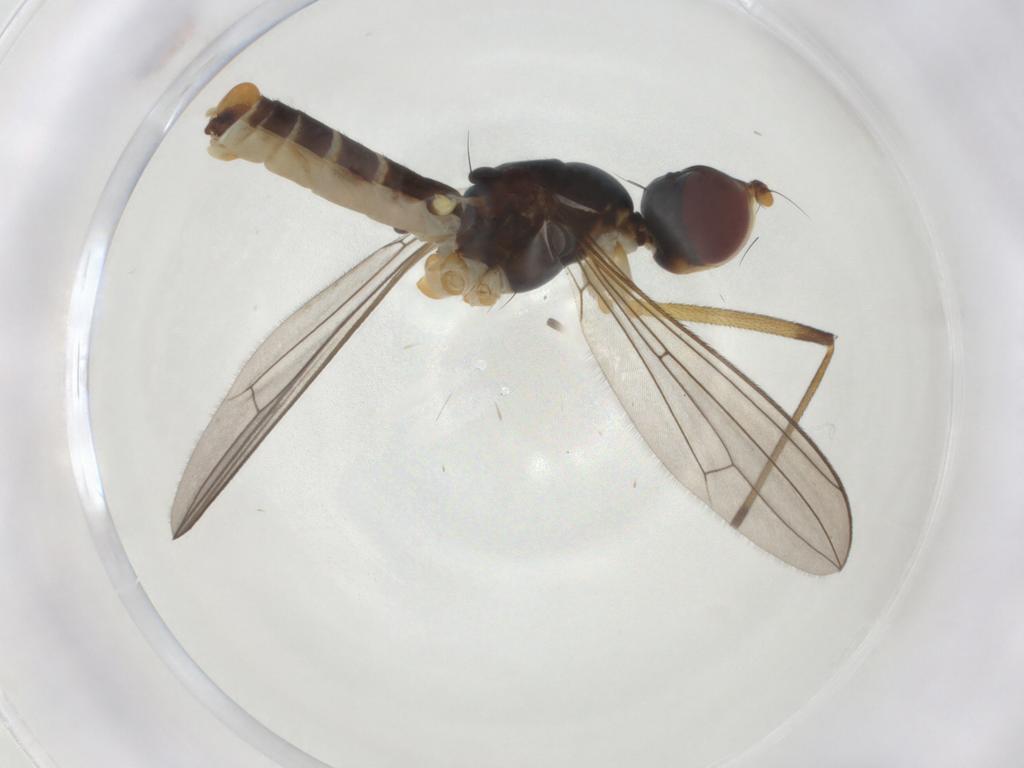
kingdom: Animalia
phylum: Arthropoda
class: Insecta
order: Diptera
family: Micropezidae
